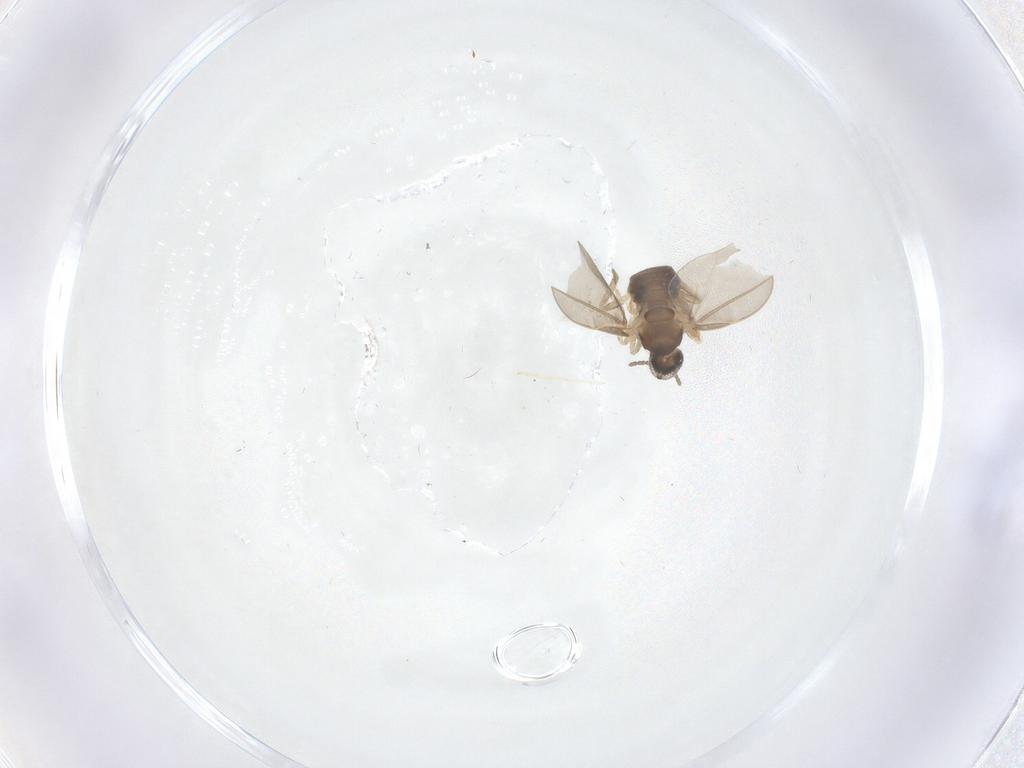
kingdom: Animalia
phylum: Arthropoda
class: Insecta
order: Diptera
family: Chironomidae
